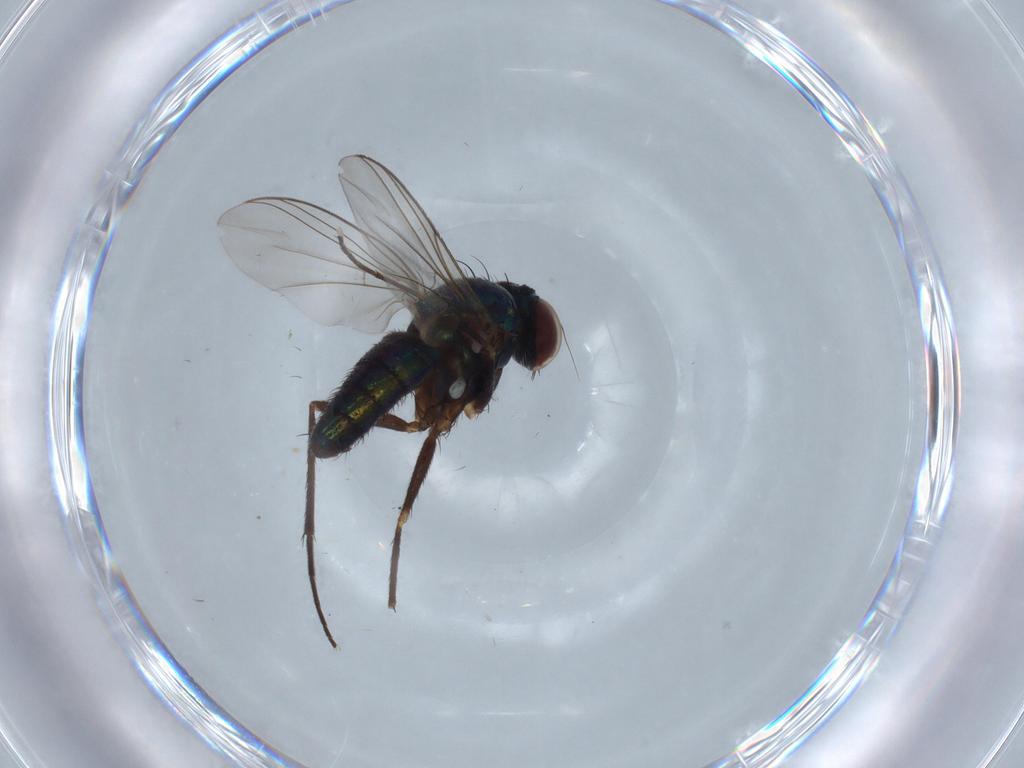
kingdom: Animalia
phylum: Arthropoda
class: Insecta
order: Diptera
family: Dolichopodidae
